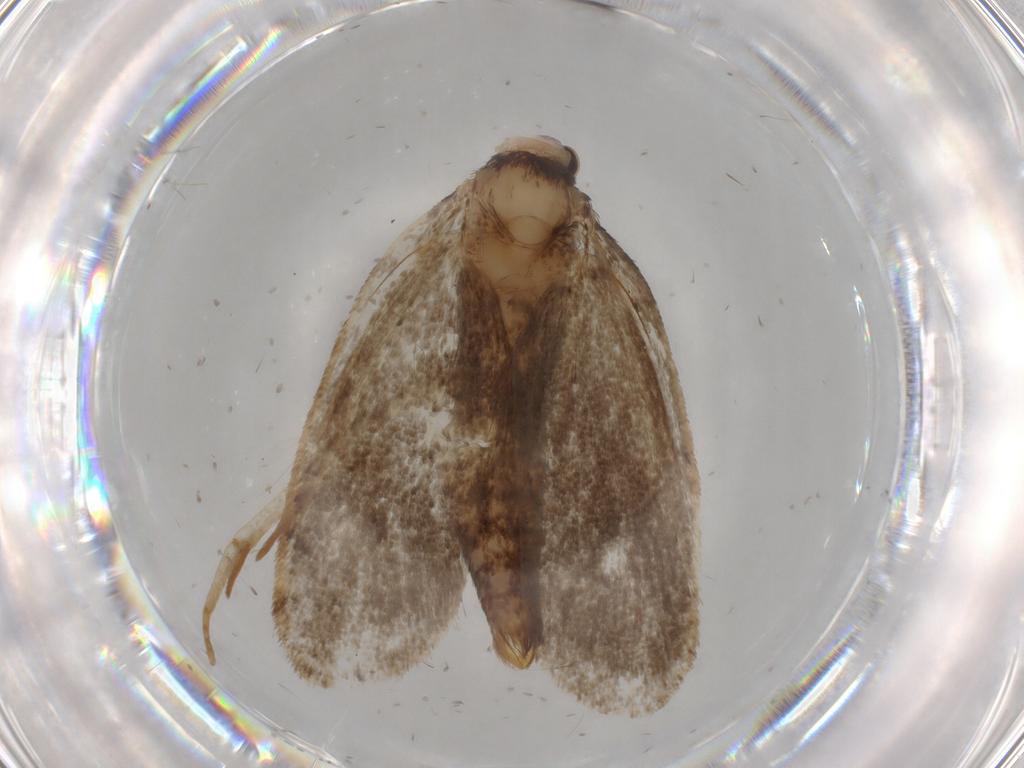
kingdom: Animalia
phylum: Arthropoda
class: Insecta
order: Lepidoptera
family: Tineidae
